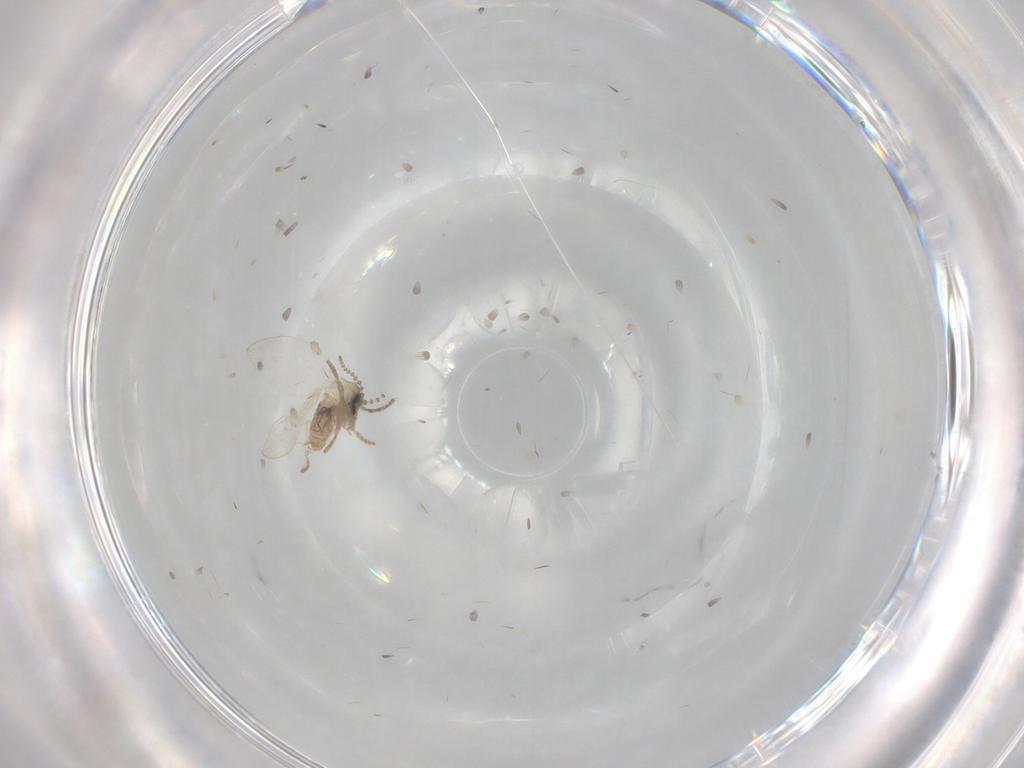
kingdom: Animalia
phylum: Arthropoda
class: Insecta
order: Diptera
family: Psychodidae
